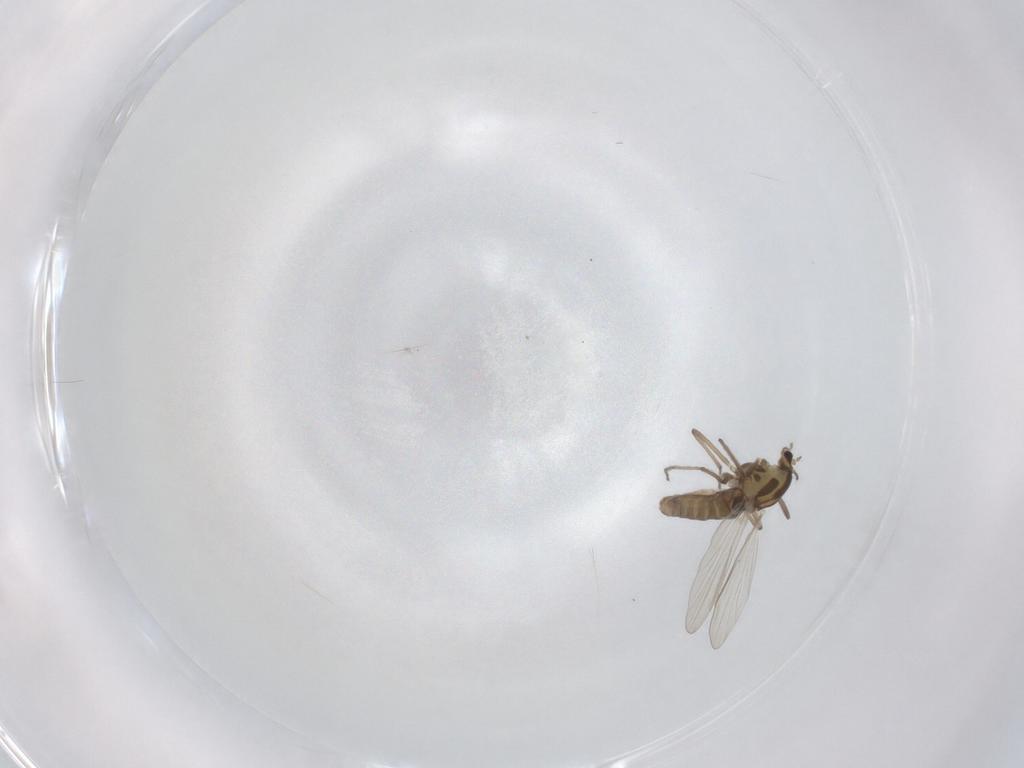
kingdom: Animalia
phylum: Arthropoda
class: Insecta
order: Diptera
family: Chironomidae
